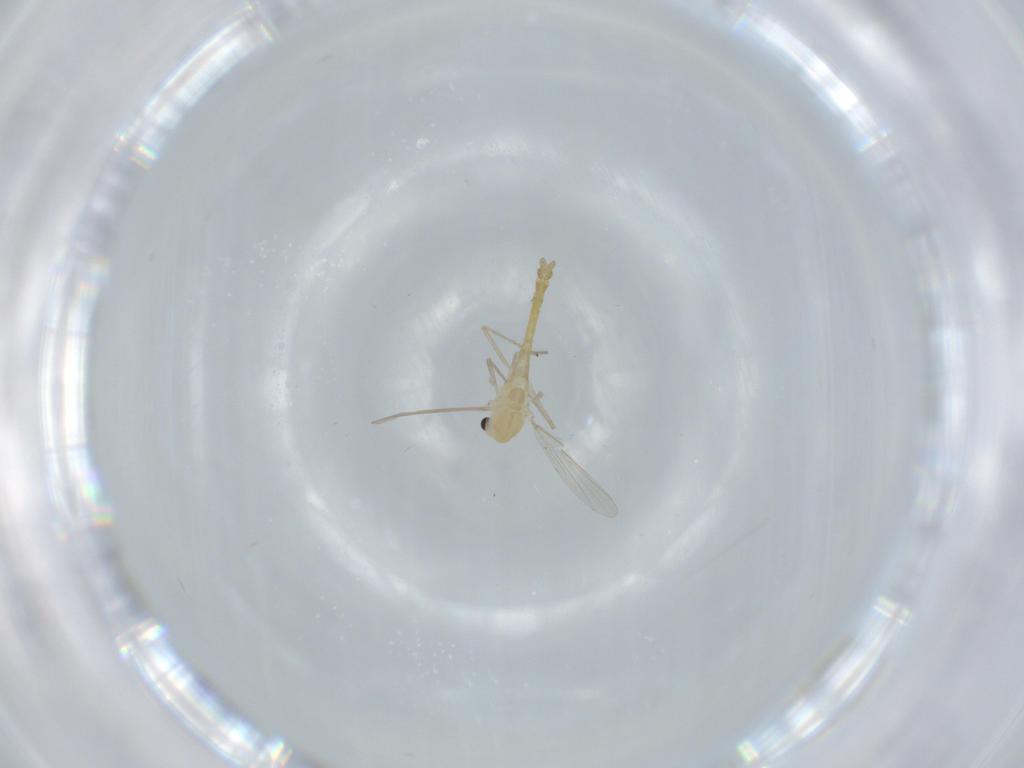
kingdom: Animalia
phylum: Arthropoda
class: Insecta
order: Diptera
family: Chironomidae
